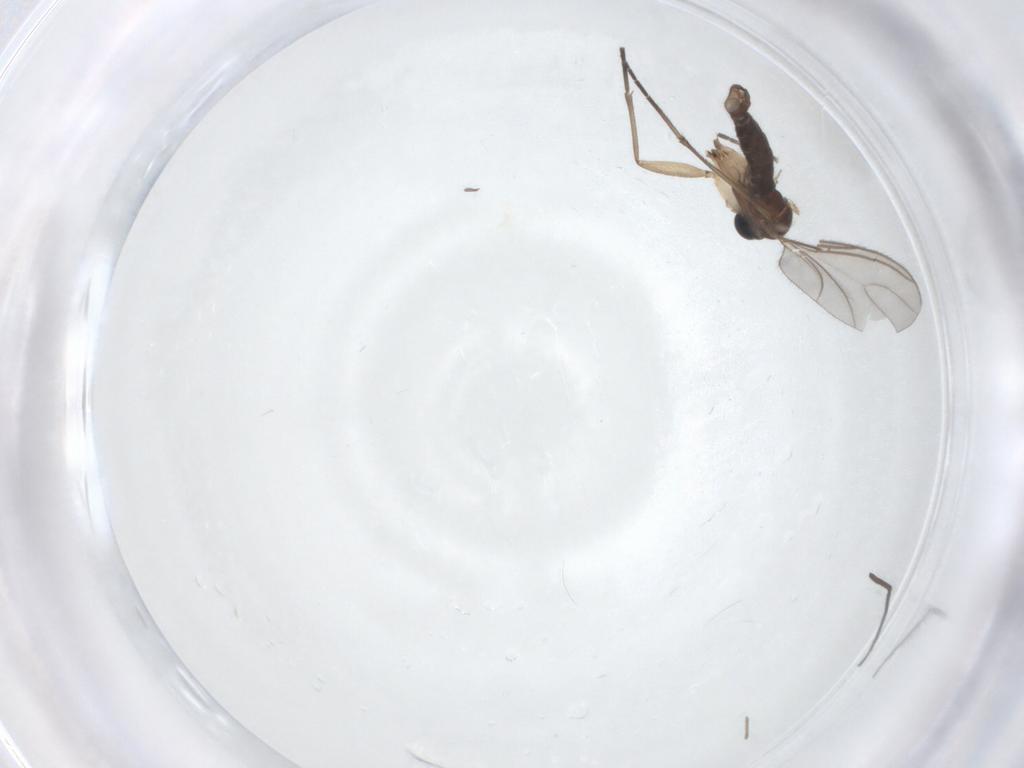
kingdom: Animalia
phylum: Arthropoda
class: Insecta
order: Diptera
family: Sciaridae
